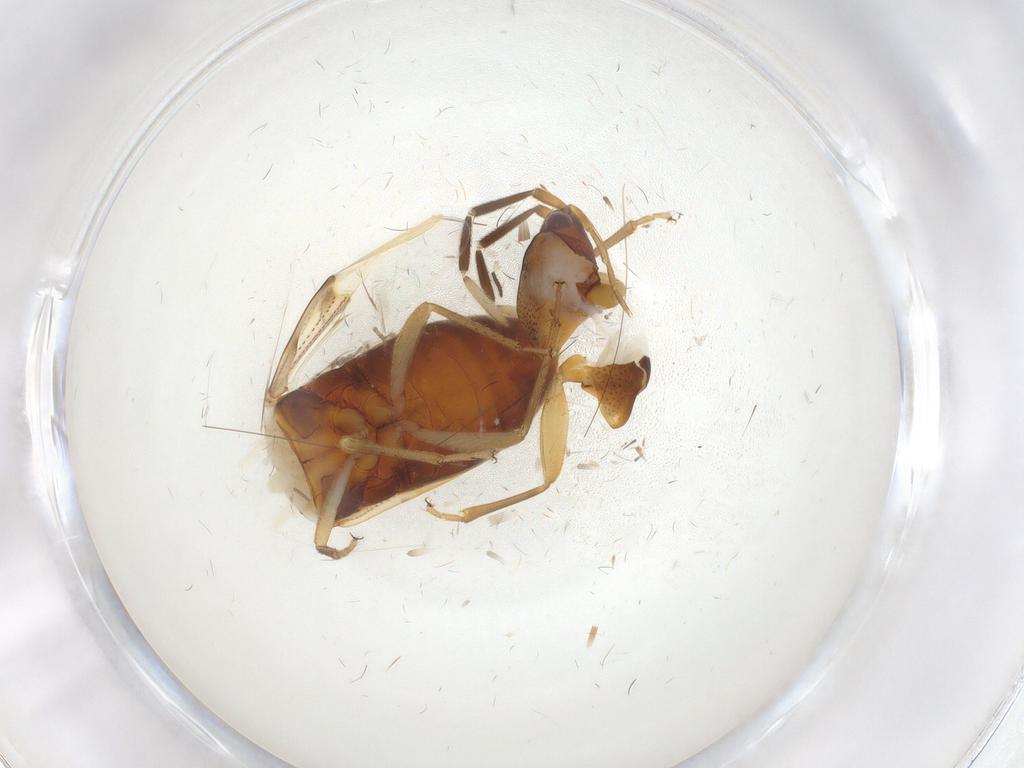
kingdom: Animalia
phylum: Arthropoda
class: Insecta
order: Hemiptera
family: Rhyparochromidae
